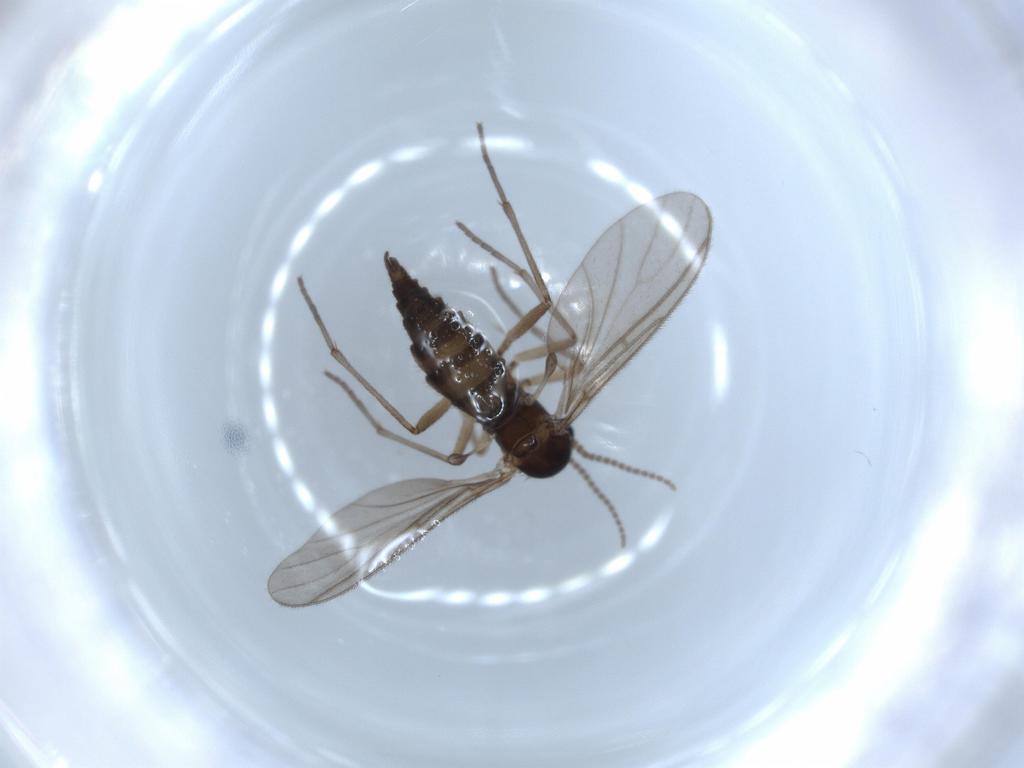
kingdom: Animalia
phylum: Arthropoda
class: Insecta
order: Diptera
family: Sciaridae
